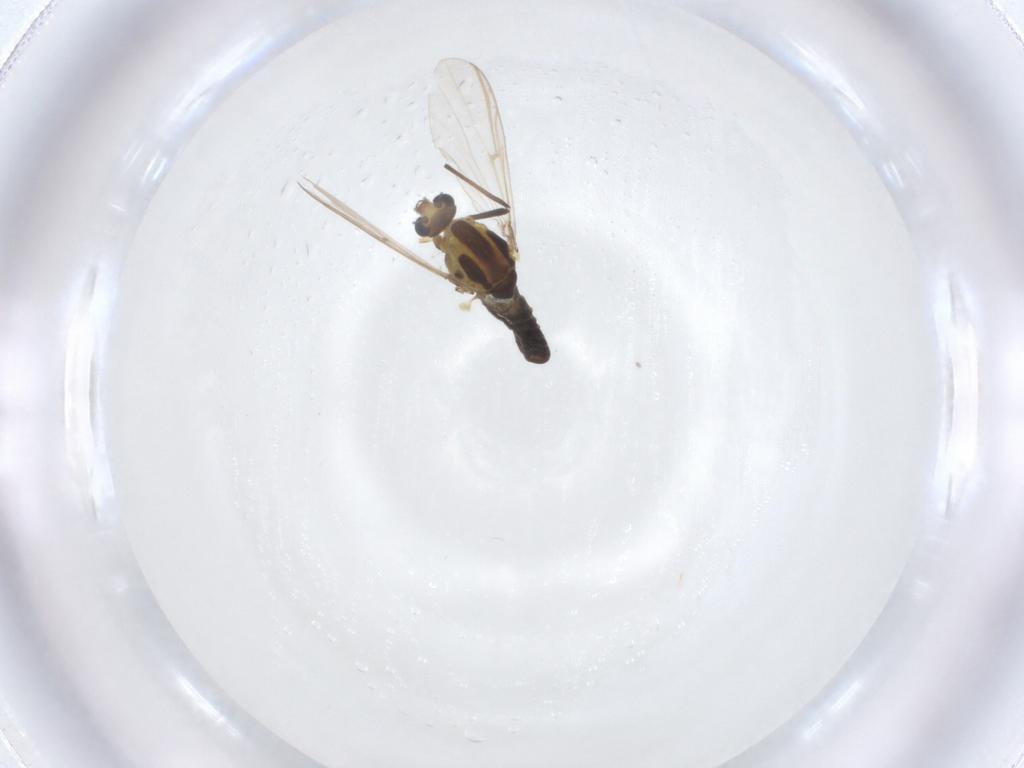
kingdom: Animalia
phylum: Arthropoda
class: Insecta
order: Diptera
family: Chironomidae
